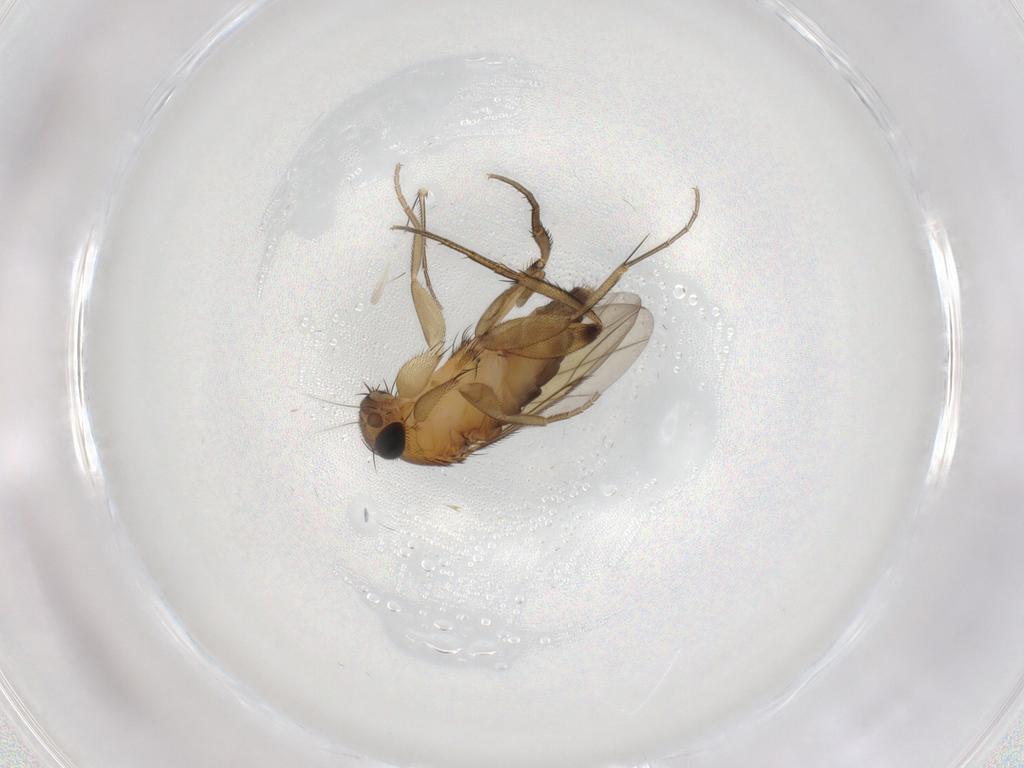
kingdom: Animalia
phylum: Arthropoda
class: Insecta
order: Diptera
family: Phoridae
